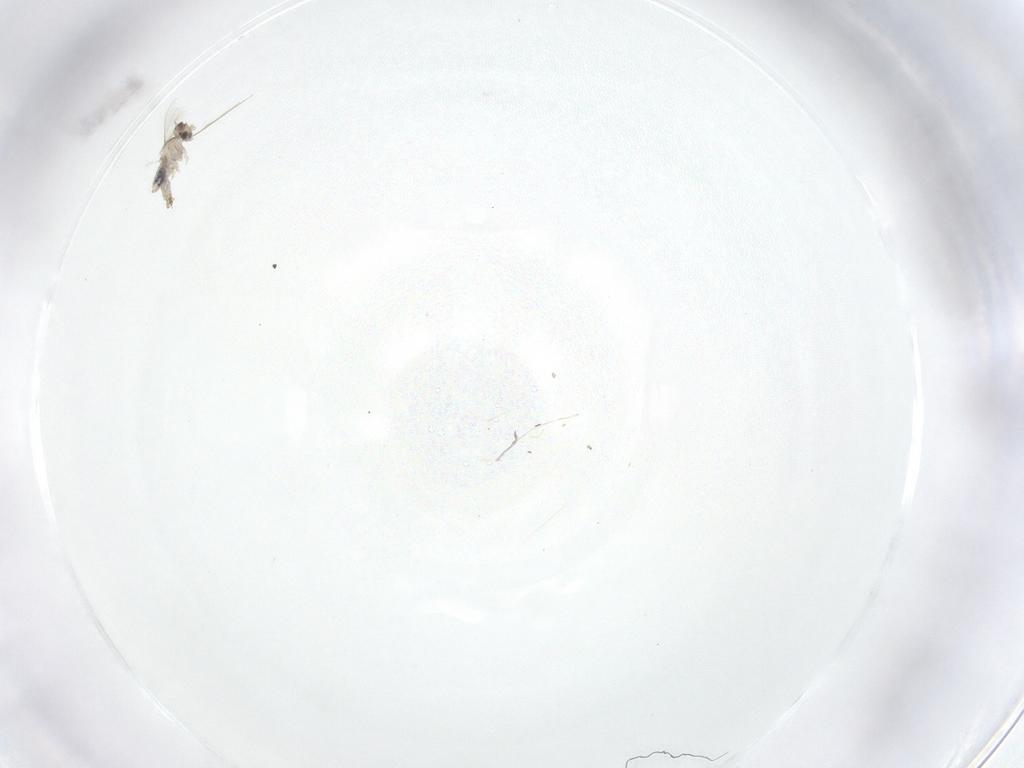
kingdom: Animalia
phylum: Arthropoda
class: Insecta
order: Diptera
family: Cecidomyiidae
